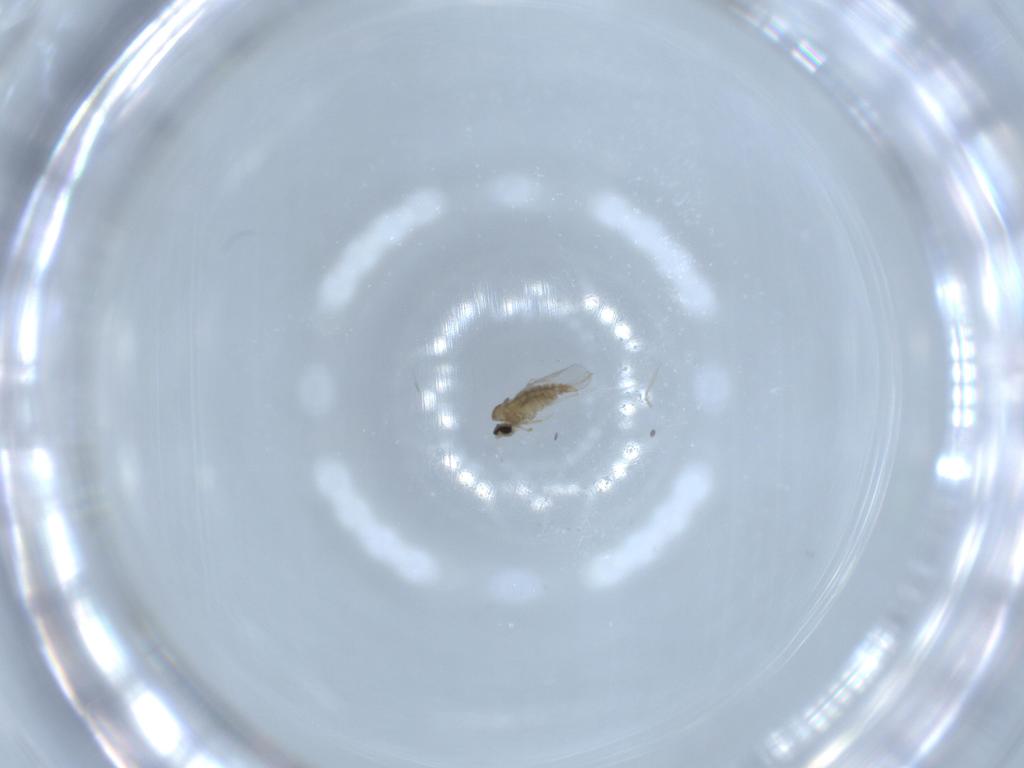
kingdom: Animalia
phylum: Arthropoda
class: Insecta
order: Diptera
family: Cecidomyiidae
